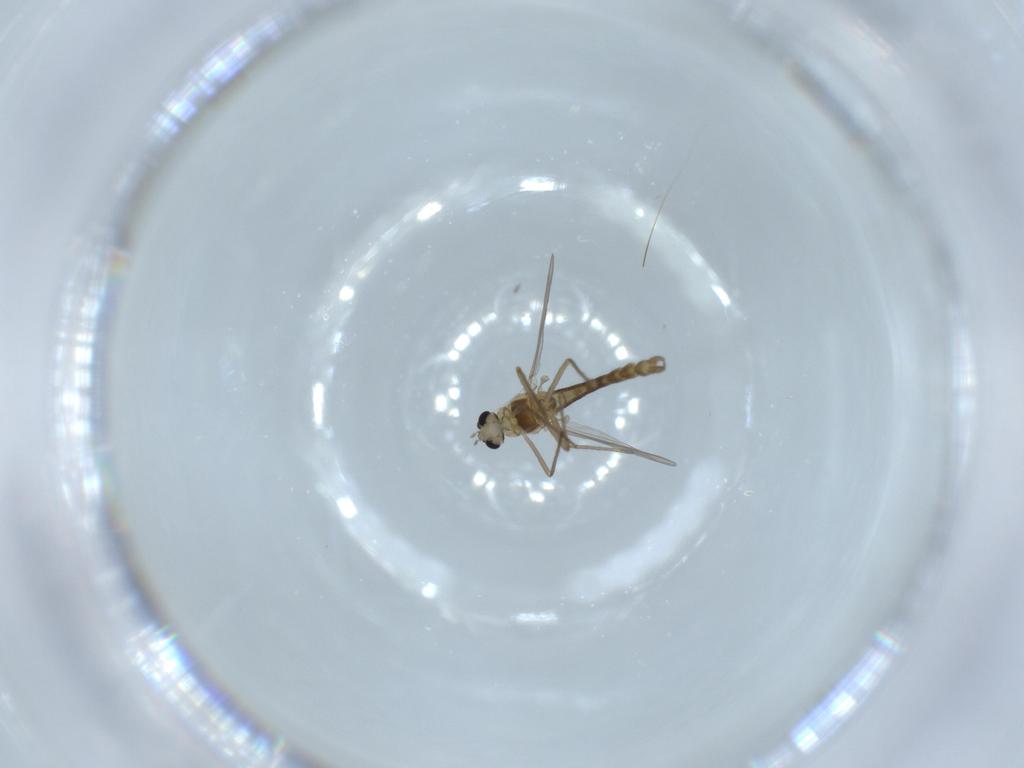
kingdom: Animalia
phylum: Arthropoda
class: Insecta
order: Diptera
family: Chironomidae
